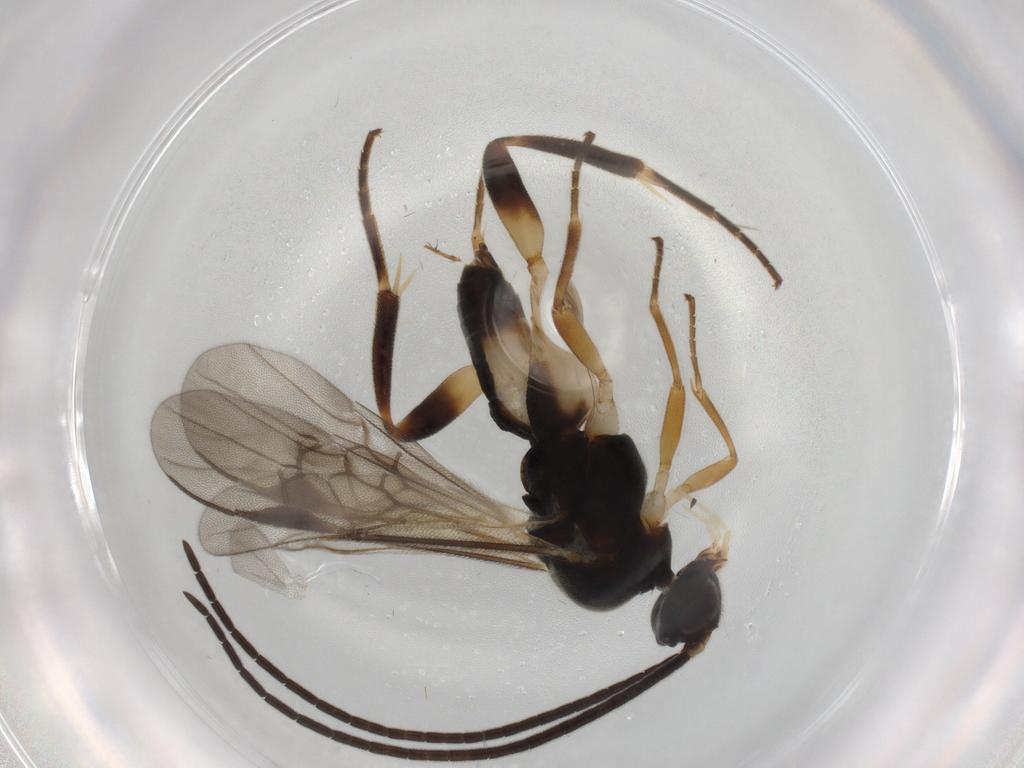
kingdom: Animalia
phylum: Arthropoda
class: Insecta
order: Hymenoptera
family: Braconidae
